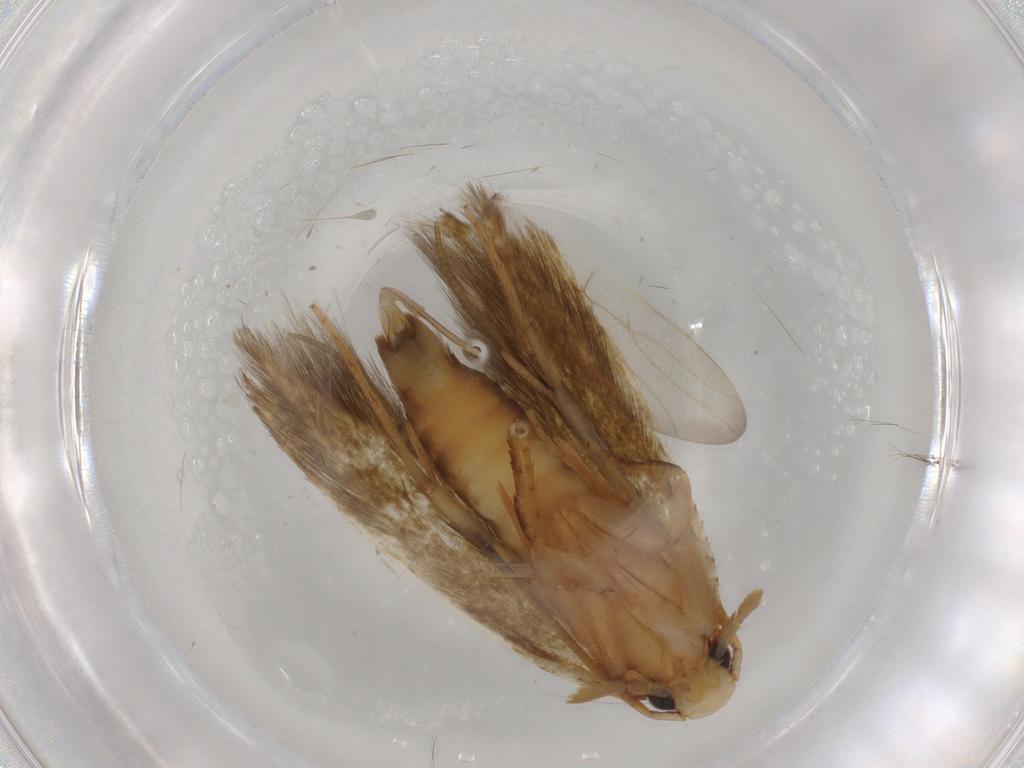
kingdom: Animalia
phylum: Arthropoda
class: Insecta
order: Lepidoptera
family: Tineidae
